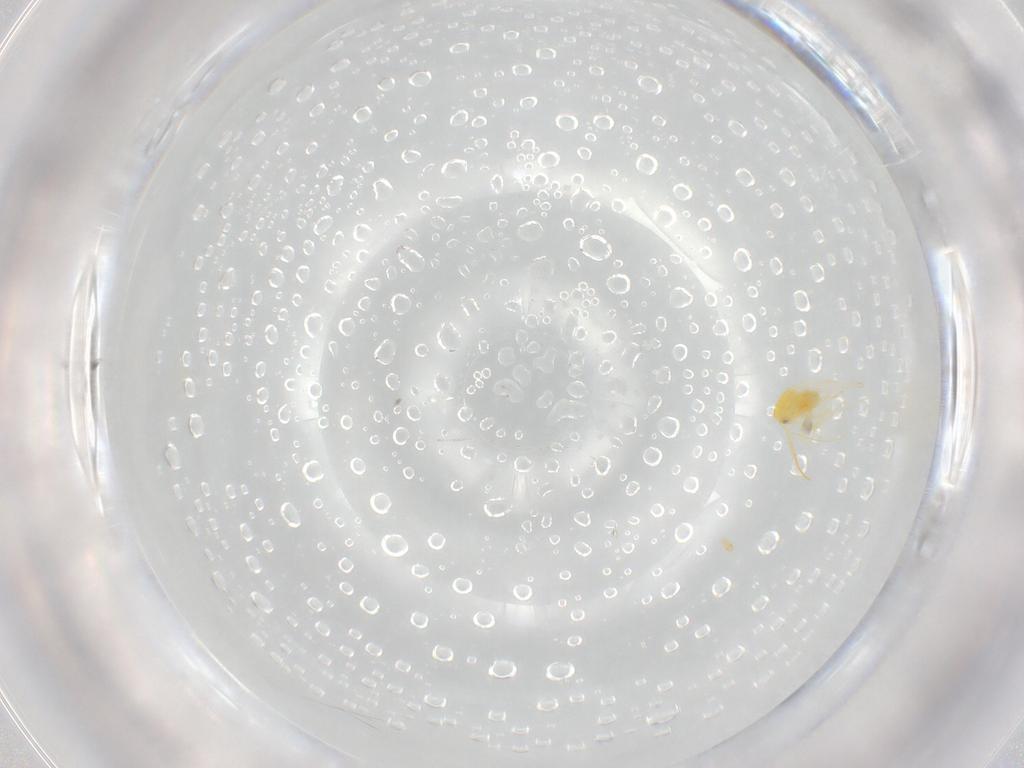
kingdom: Animalia
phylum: Arthropoda
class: Insecta
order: Hemiptera
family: Aleyrodidae
